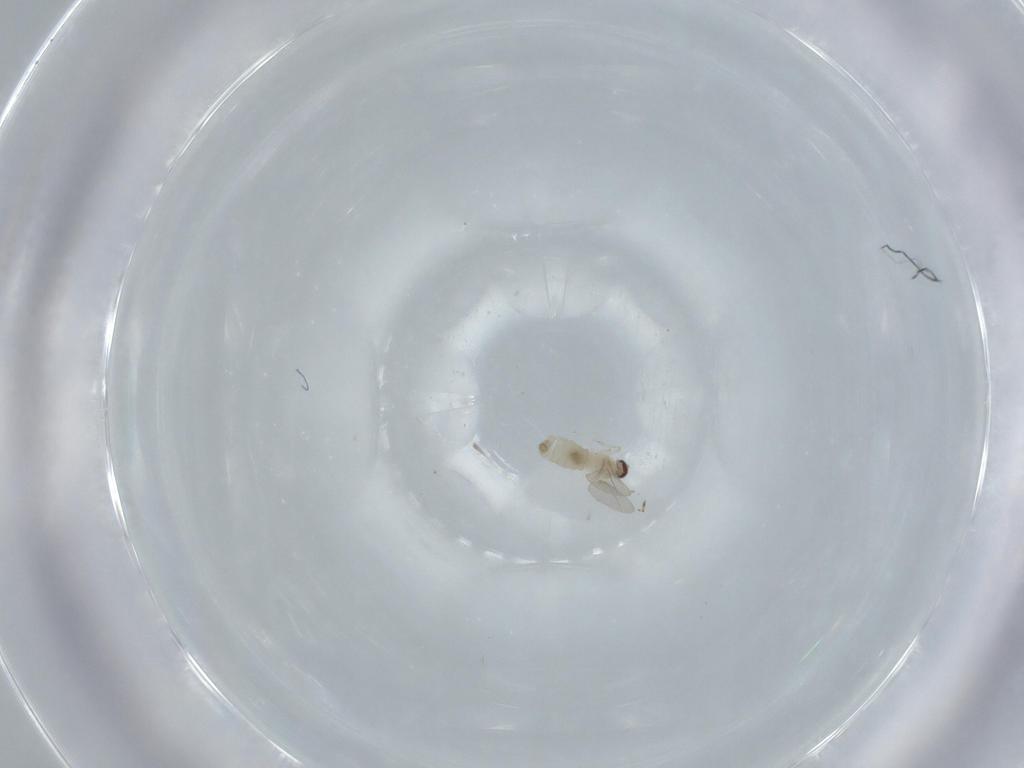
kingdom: Animalia
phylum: Arthropoda
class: Insecta
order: Diptera
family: Cecidomyiidae
